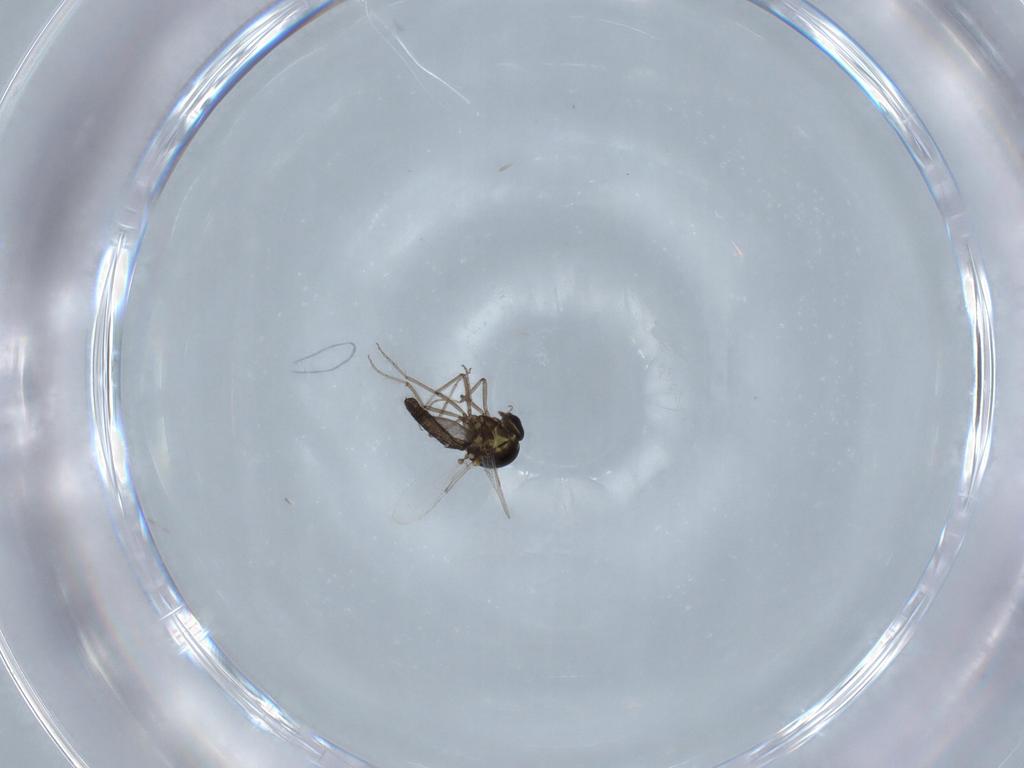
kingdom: Animalia
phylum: Arthropoda
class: Insecta
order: Diptera
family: Ceratopogonidae
